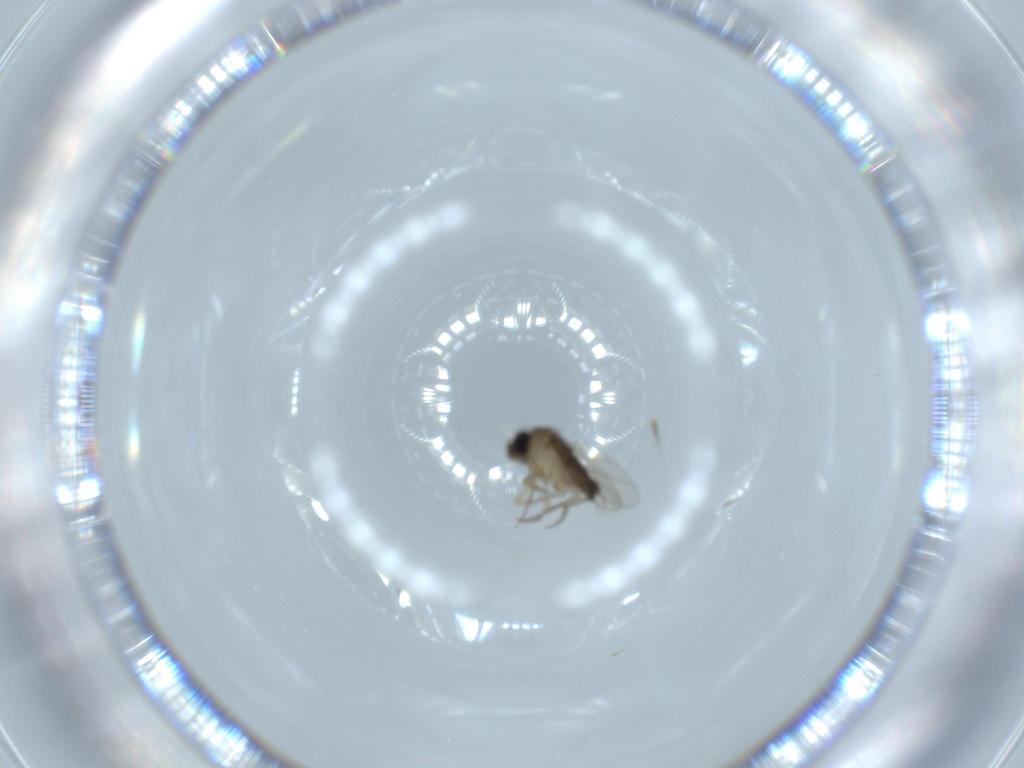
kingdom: Animalia
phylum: Arthropoda
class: Insecta
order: Diptera
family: Phoridae
